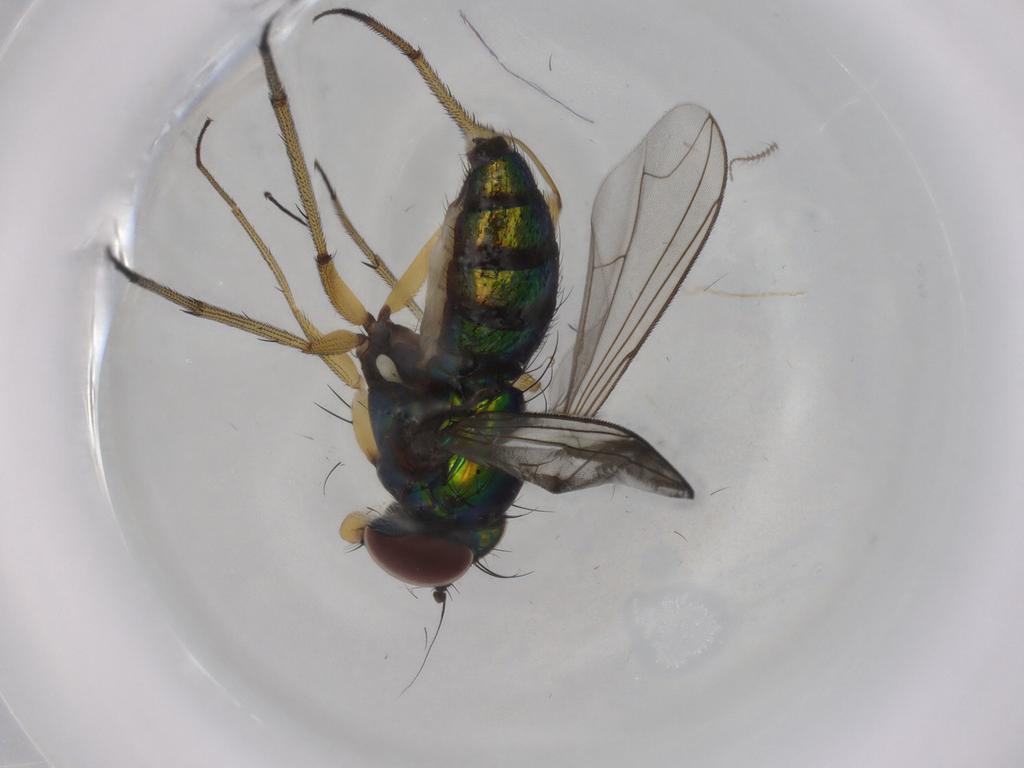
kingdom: Animalia
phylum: Arthropoda
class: Insecta
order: Diptera
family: Dolichopodidae
